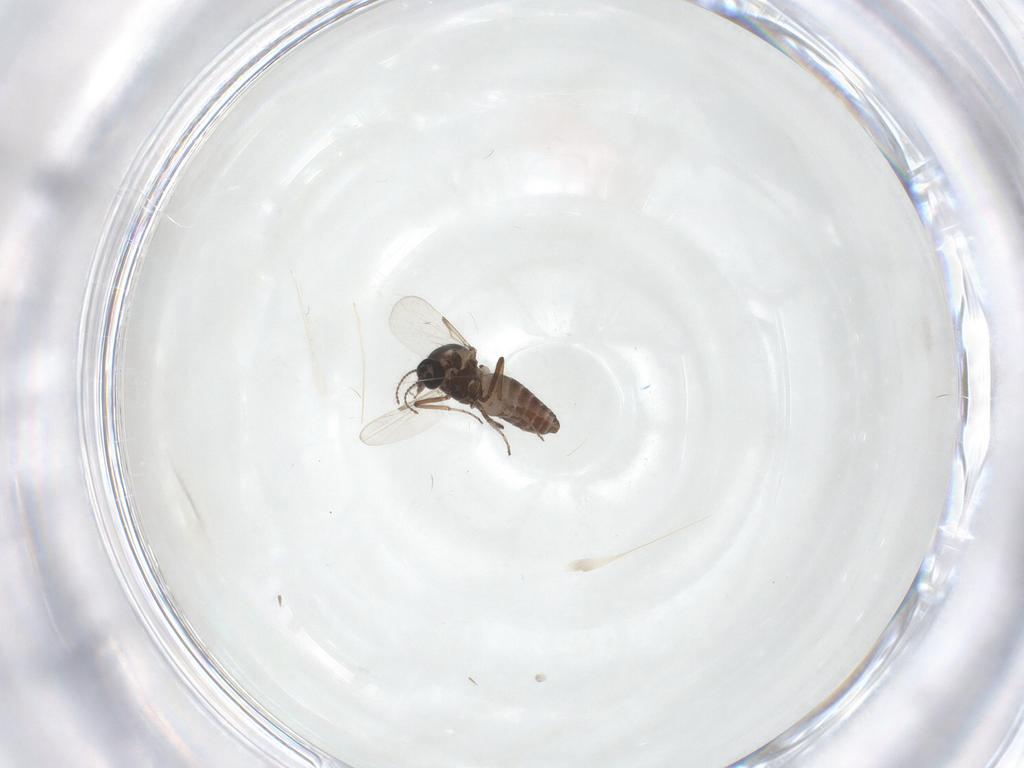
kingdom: Animalia
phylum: Arthropoda
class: Insecta
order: Diptera
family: Ceratopogonidae
